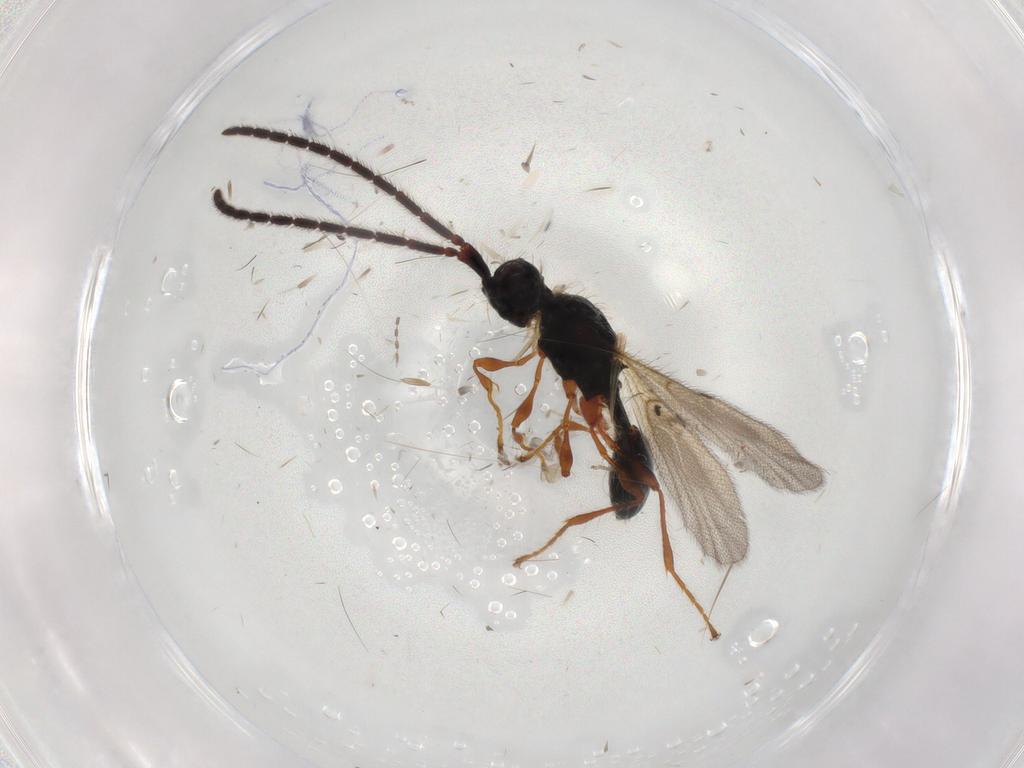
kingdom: Animalia
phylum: Arthropoda
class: Insecta
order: Hymenoptera
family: Diapriidae
